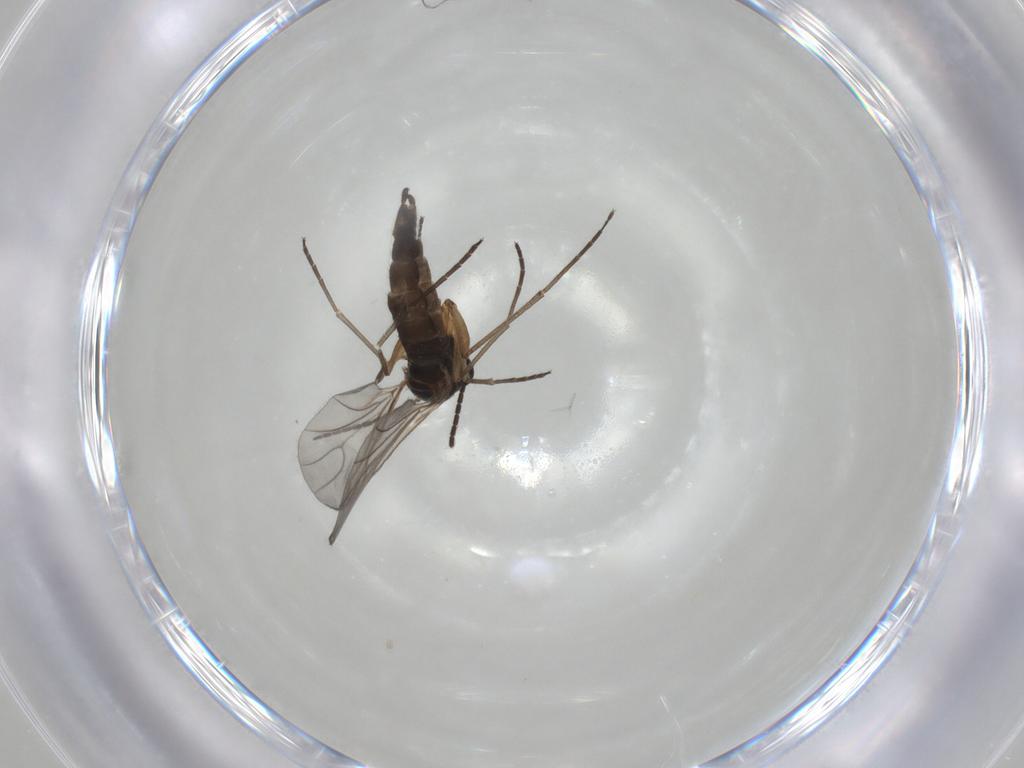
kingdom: Animalia
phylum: Arthropoda
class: Insecta
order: Diptera
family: Sciaridae
